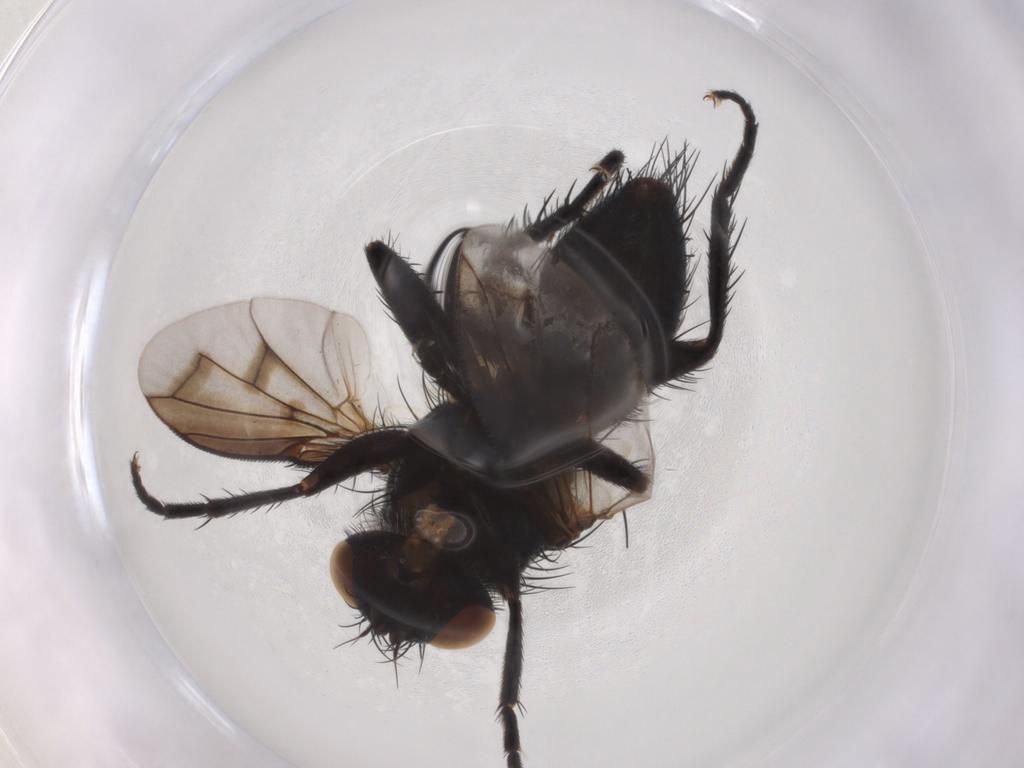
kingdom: Animalia
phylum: Arthropoda
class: Insecta
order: Diptera
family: Tachinidae
